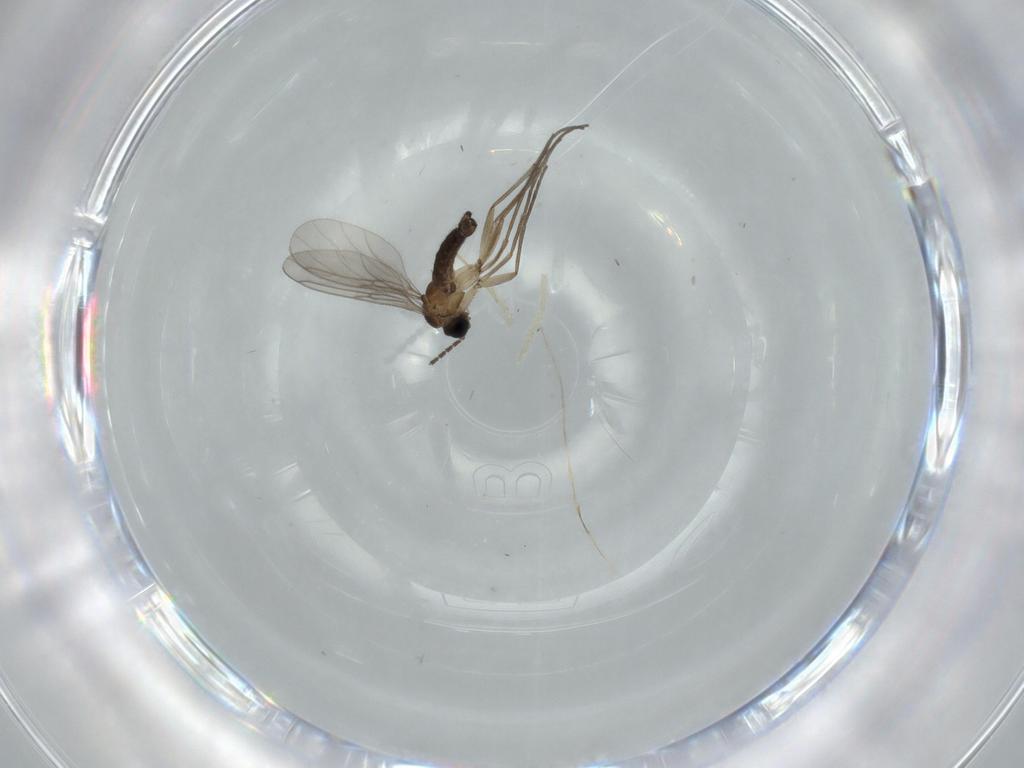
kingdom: Animalia
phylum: Arthropoda
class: Insecta
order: Diptera
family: Sciaridae
